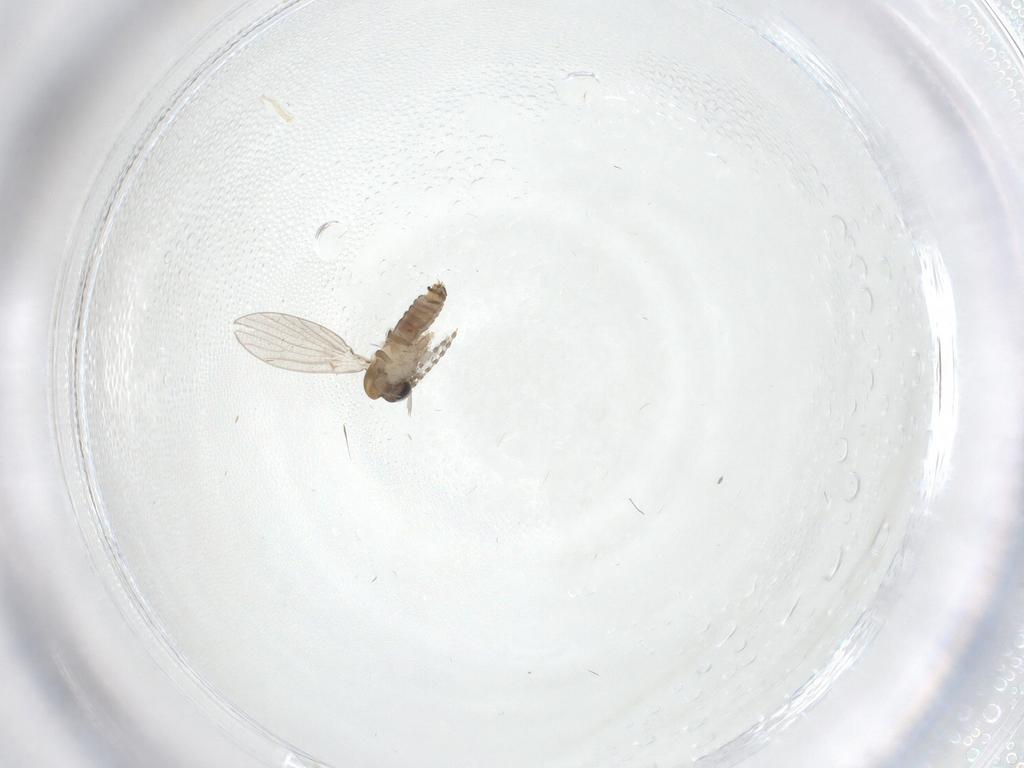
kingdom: Animalia
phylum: Arthropoda
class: Insecta
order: Diptera
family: Psychodidae
